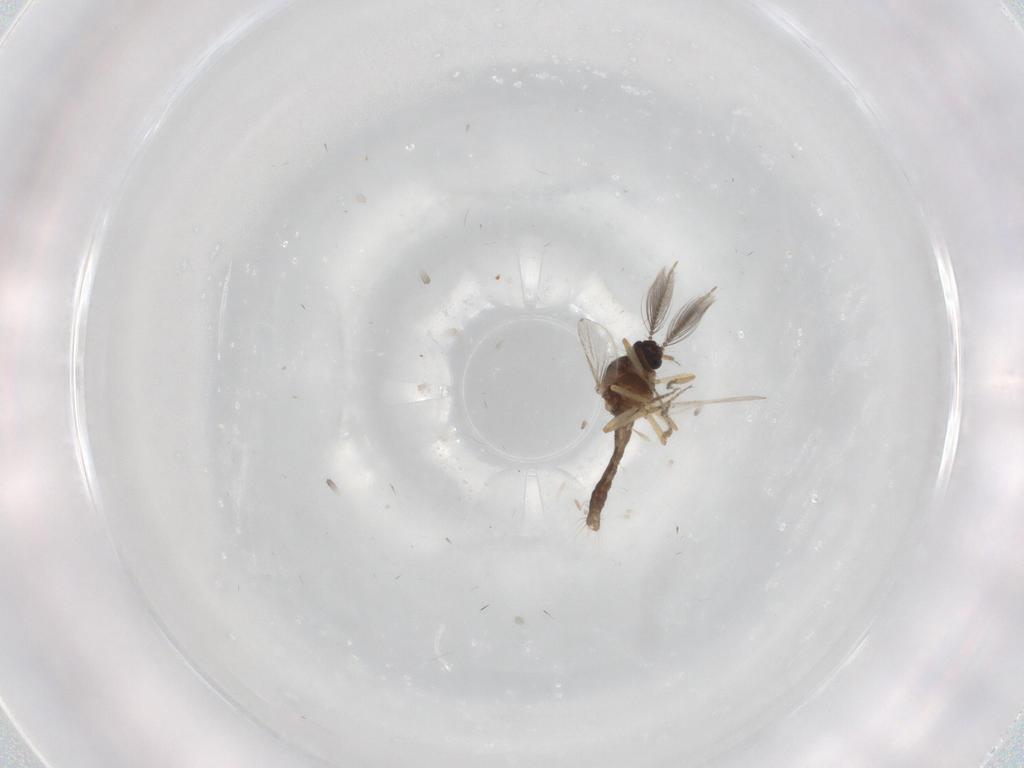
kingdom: Animalia
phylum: Arthropoda
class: Insecta
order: Diptera
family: Ceratopogonidae
